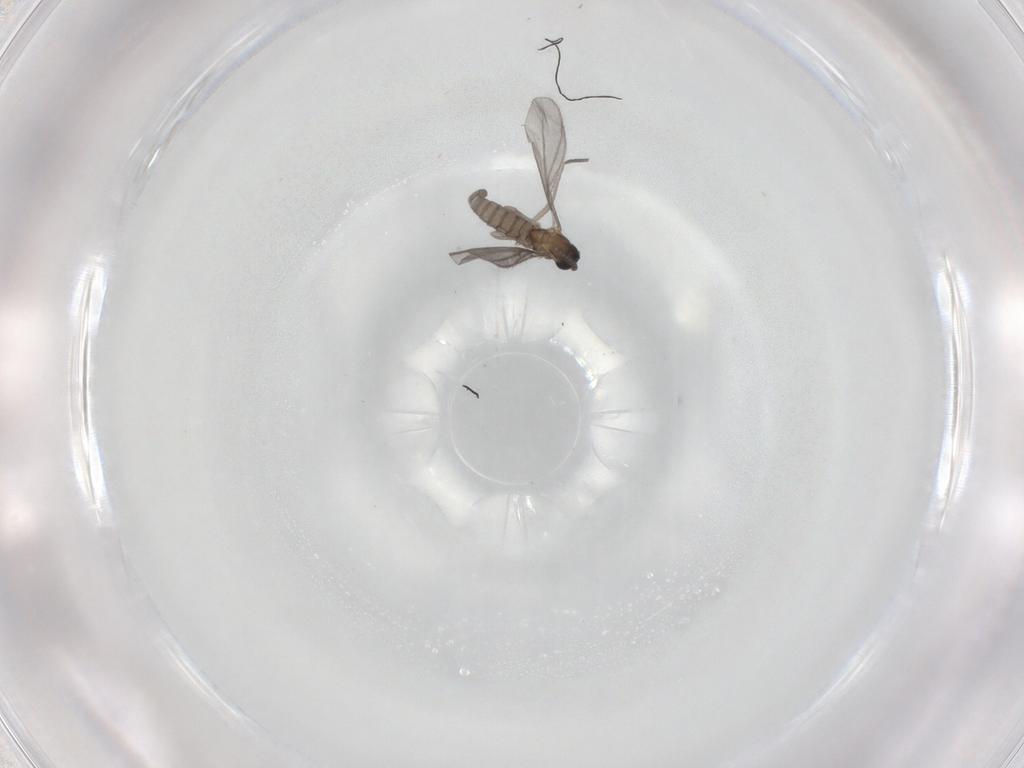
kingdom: Animalia
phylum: Arthropoda
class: Insecta
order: Diptera
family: Sciaridae
